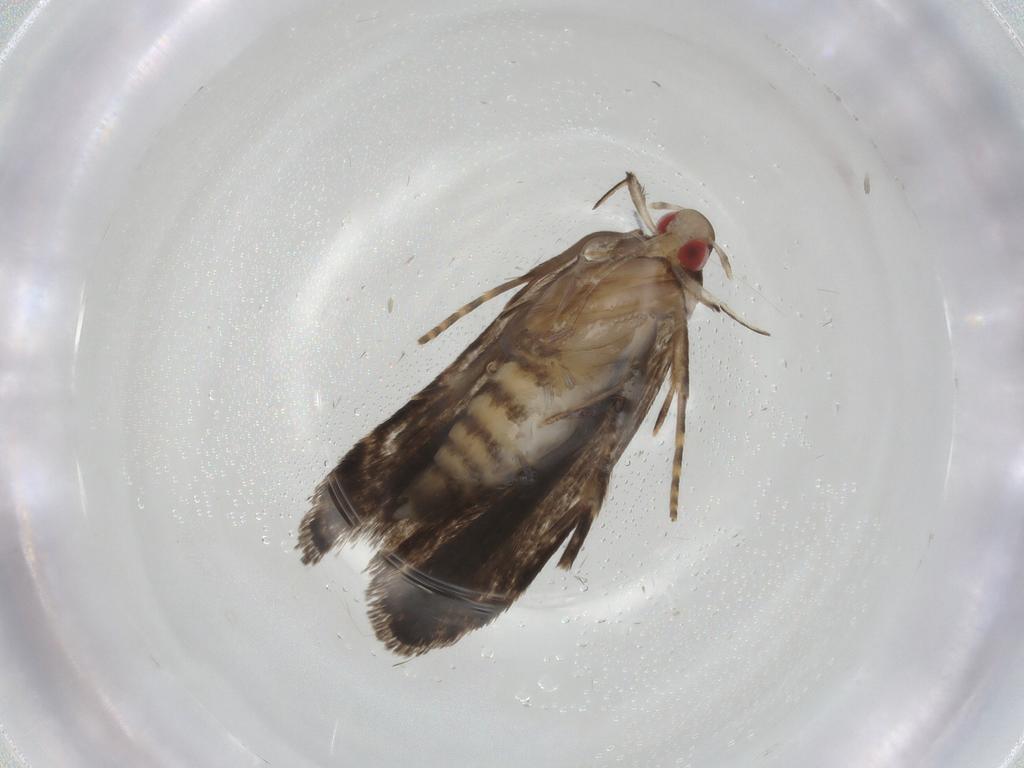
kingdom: Animalia
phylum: Arthropoda
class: Insecta
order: Lepidoptera
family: Gelechiidae
